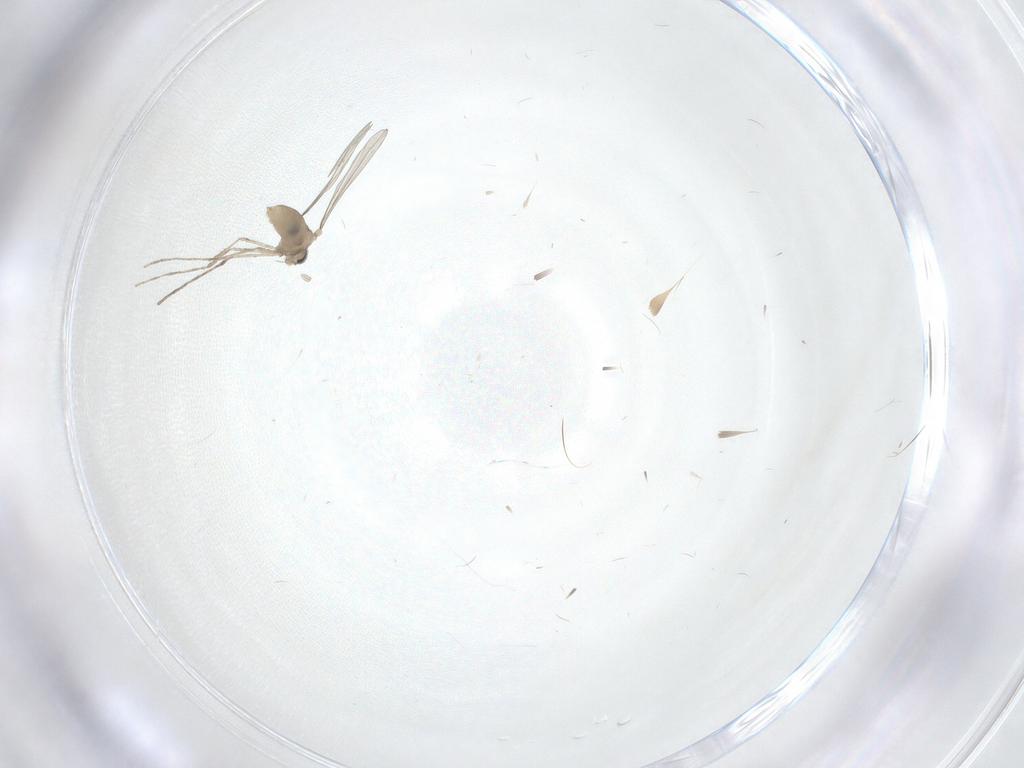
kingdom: Animalia
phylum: Arthropoda
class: Insecta
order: Diptera
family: Cecidomyiidae
